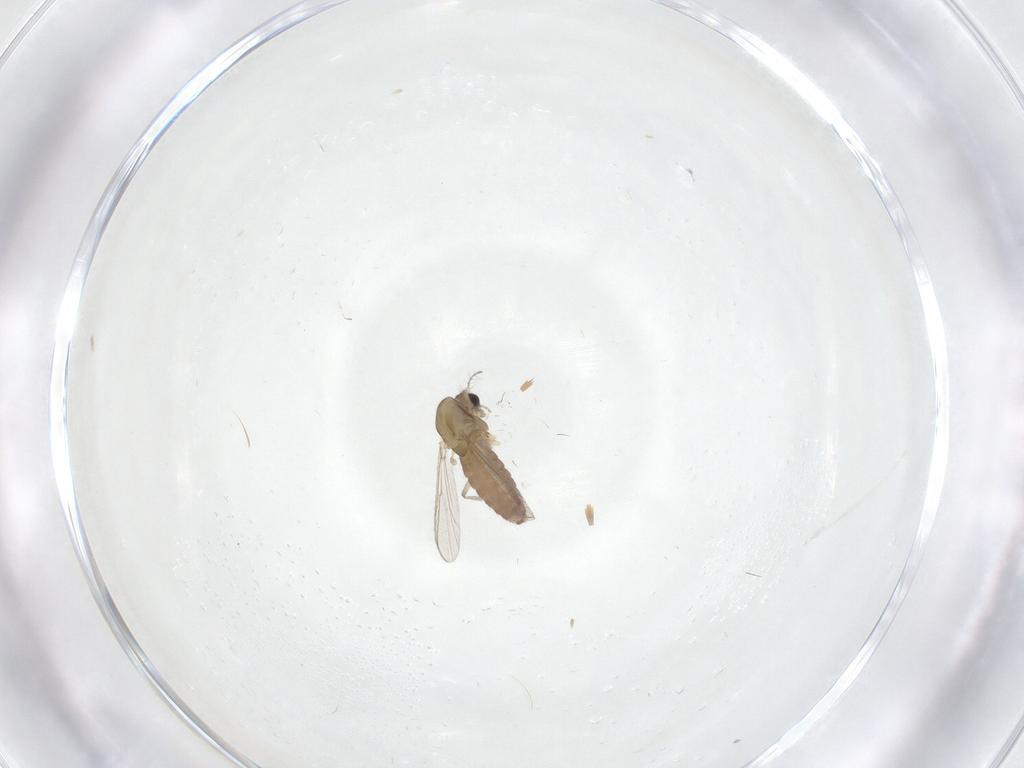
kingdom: Animalia
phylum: Arthropoda
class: Insecta
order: Diptera
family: Chironomidae
